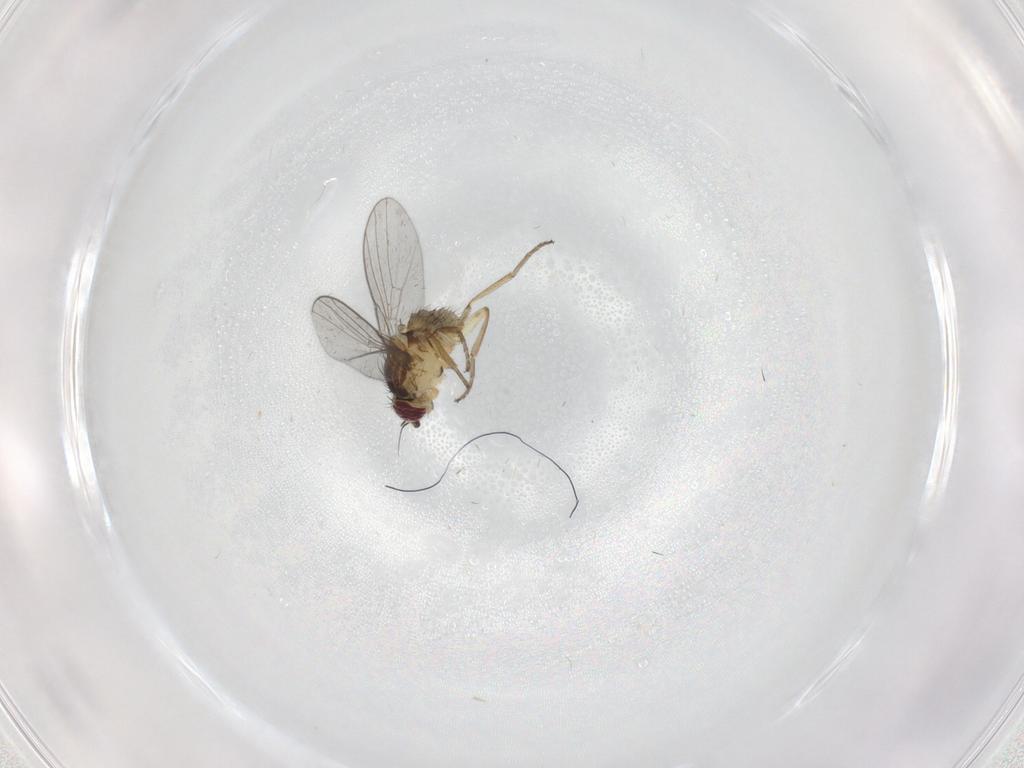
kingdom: Animalia
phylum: Arthropoda
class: Insecta
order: Diptera
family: Agromyzidae
